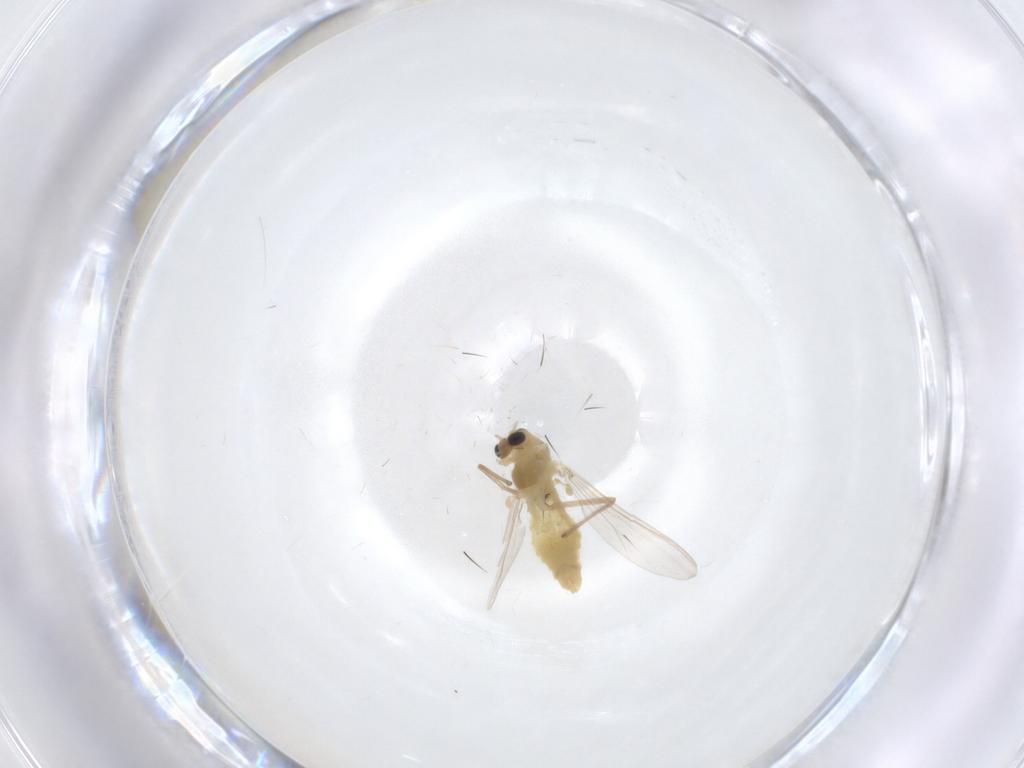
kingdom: Animalia
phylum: Arthropoda
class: Insecta
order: Diptera
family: Chironomidae
